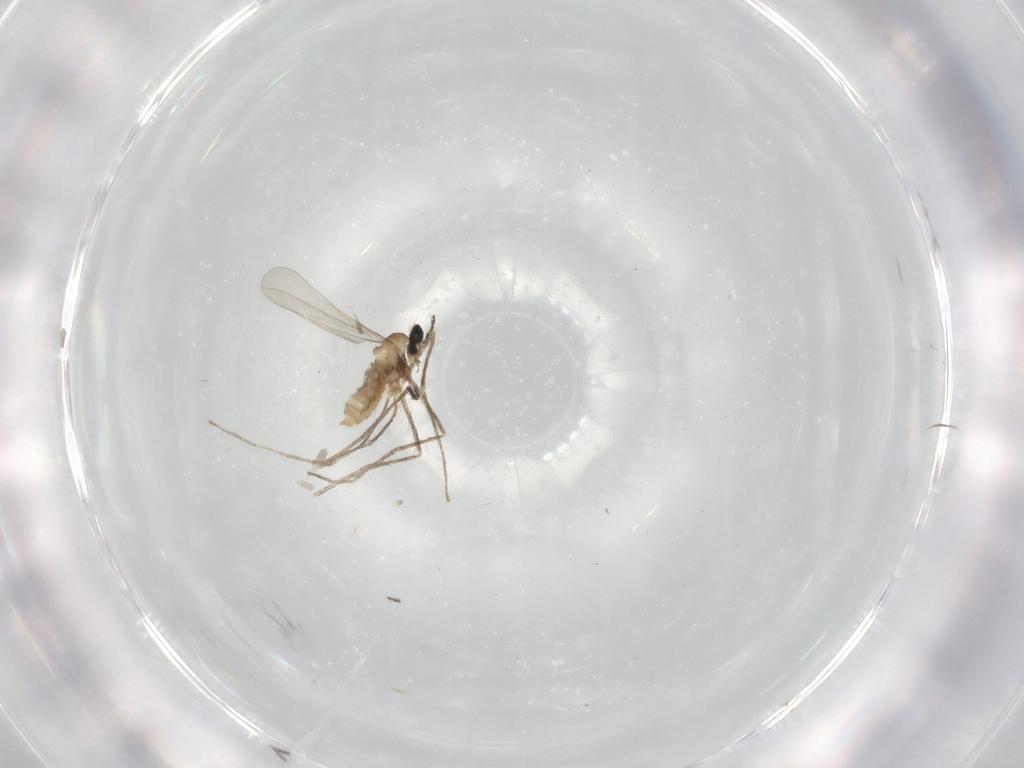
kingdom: Animalia
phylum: Arthropoda
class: Insecta
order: Diptera
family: Cecidomyiidae
